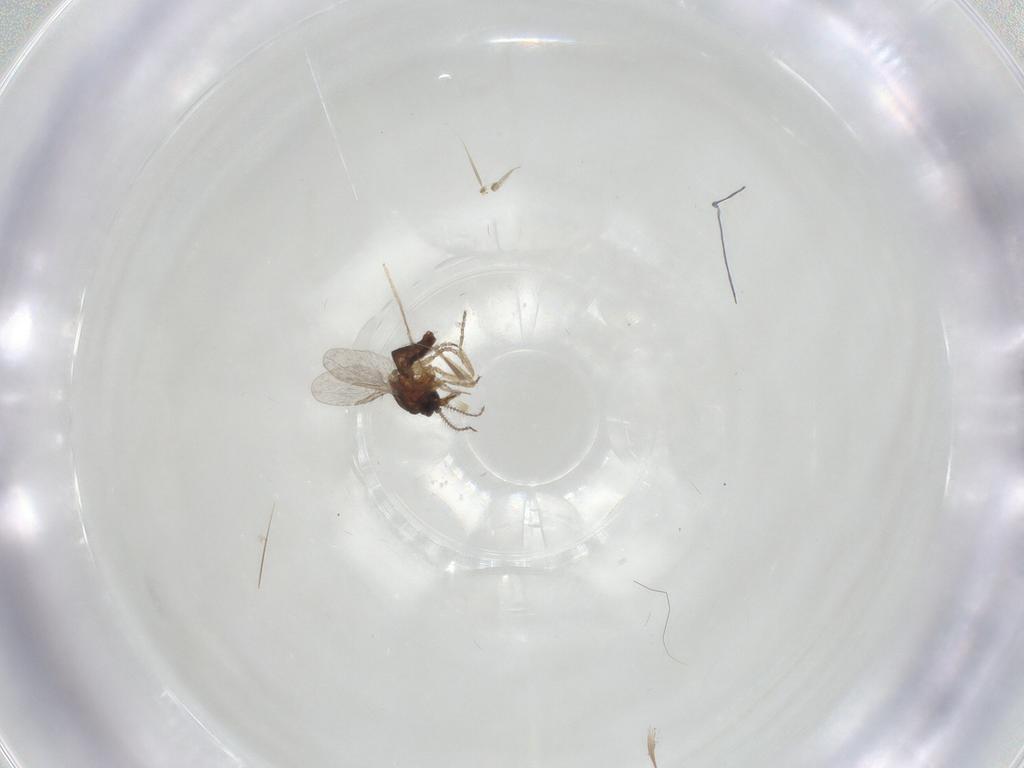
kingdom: Animalia
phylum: Arthropoda
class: Insecta
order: Diptera
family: Ceratopogonidae
